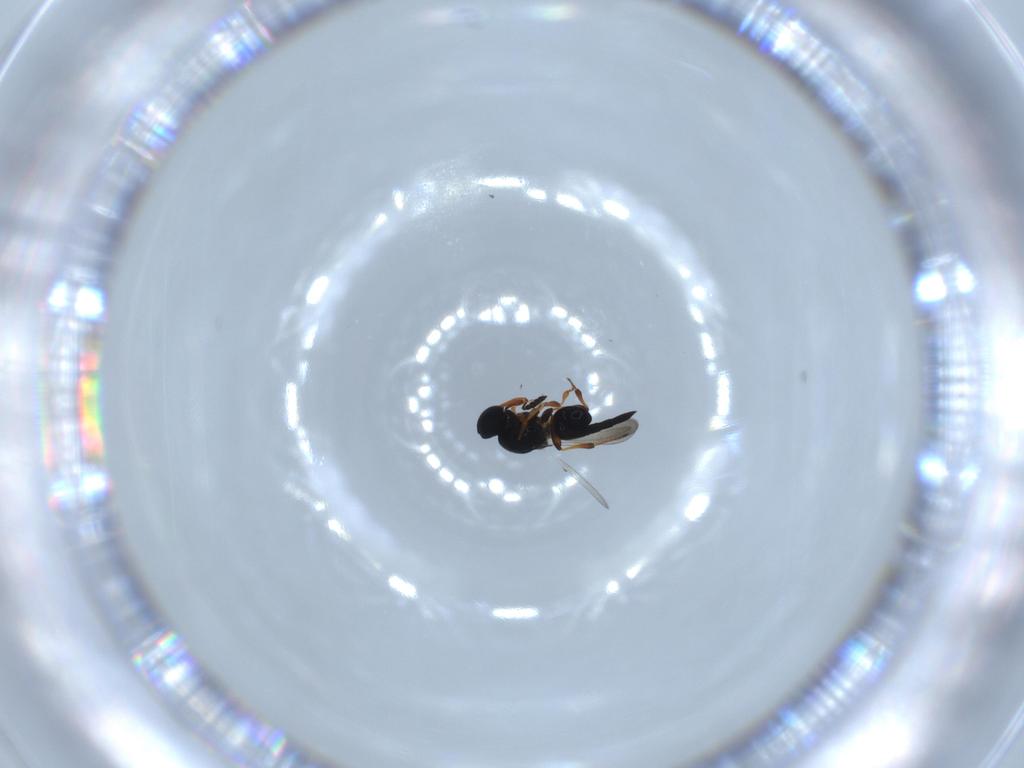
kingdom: Animalia
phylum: Arthropoda
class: Insecta
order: Hymenoptera
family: Platygastridae
